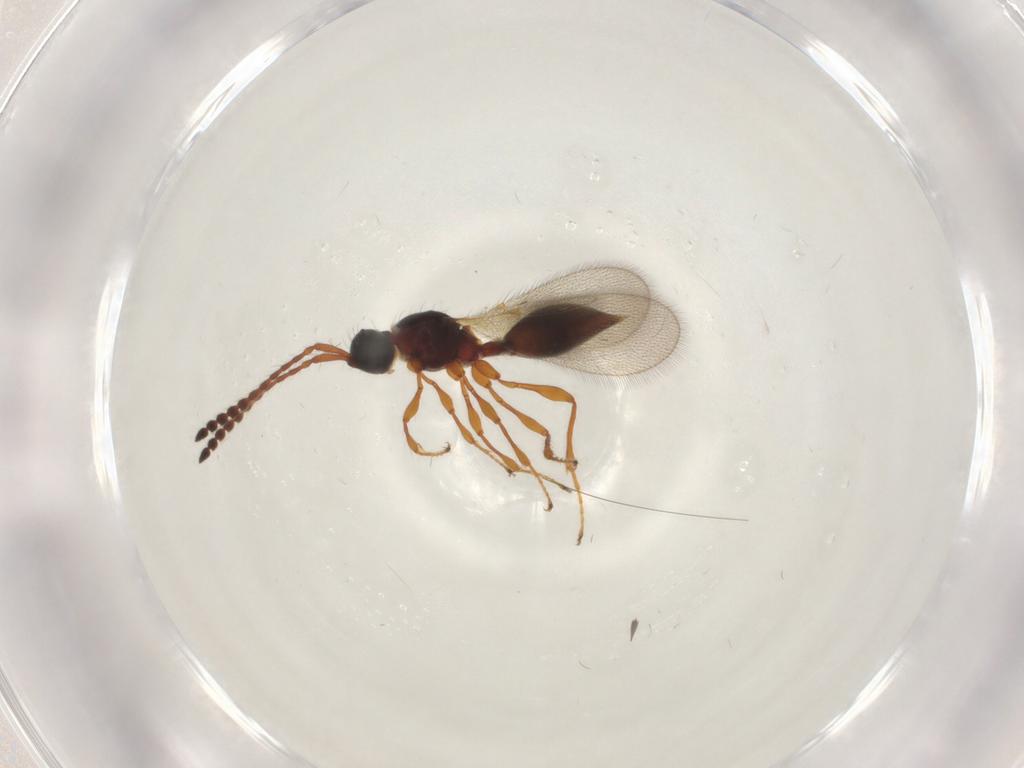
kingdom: Animalia
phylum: Arthropoda
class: Insecta
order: Hymenoptera
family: Diapriidae
